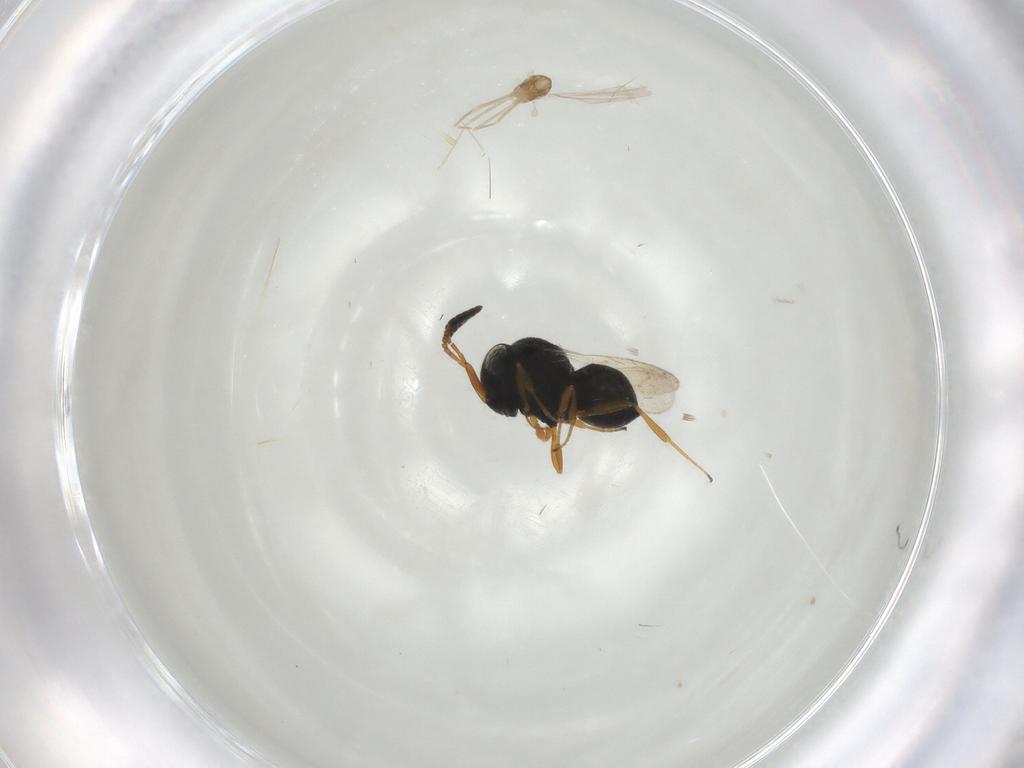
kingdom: Animalia
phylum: Arthropoda
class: Insecta
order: Hymenoptera
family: Scelionidae
